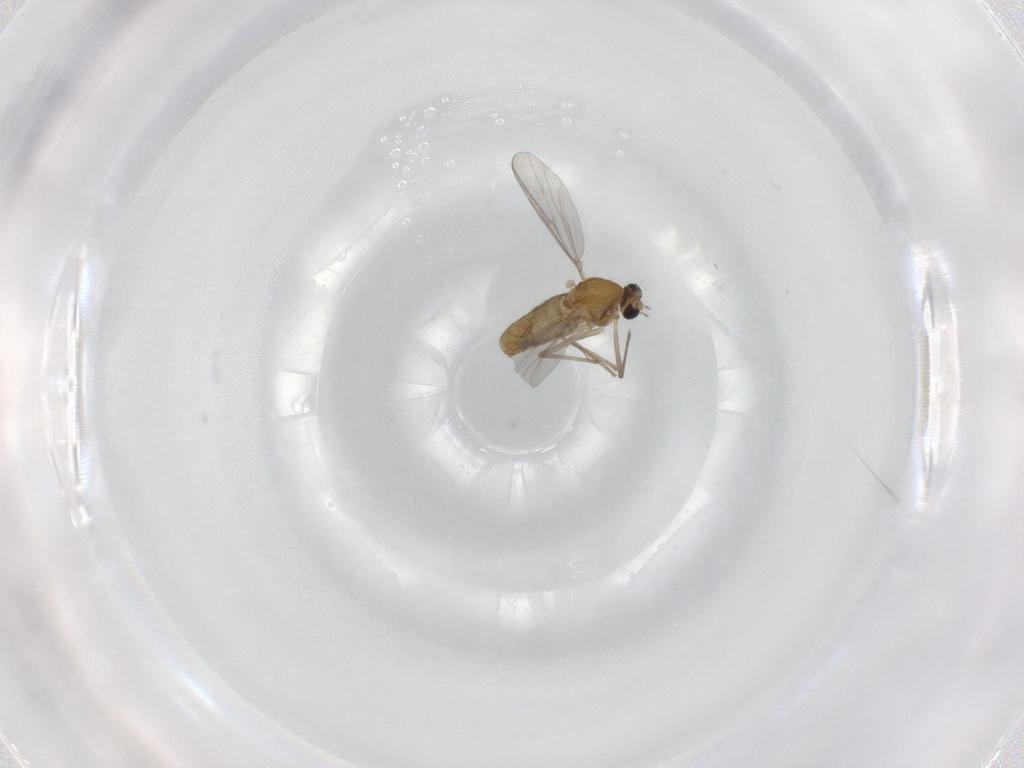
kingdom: Animalia
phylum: Arthropoda
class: Insecta
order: Diptera
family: Chironomidae
